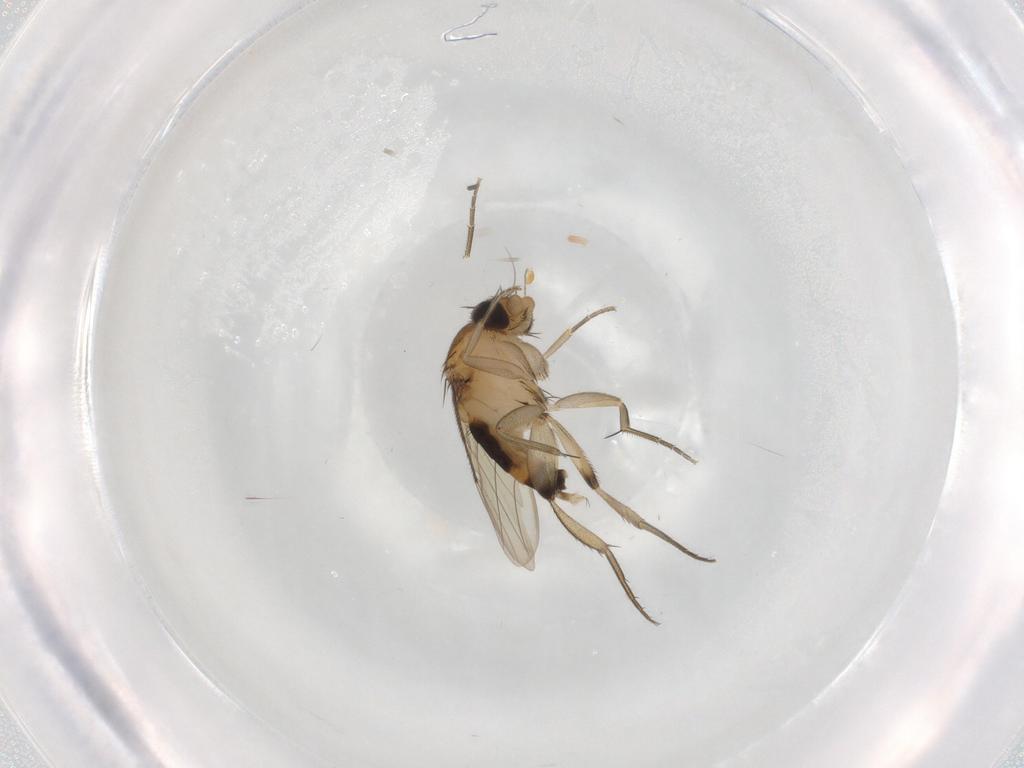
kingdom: Animalia
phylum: Arthropoda
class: Insecta
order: Diptera
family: Phoridae
